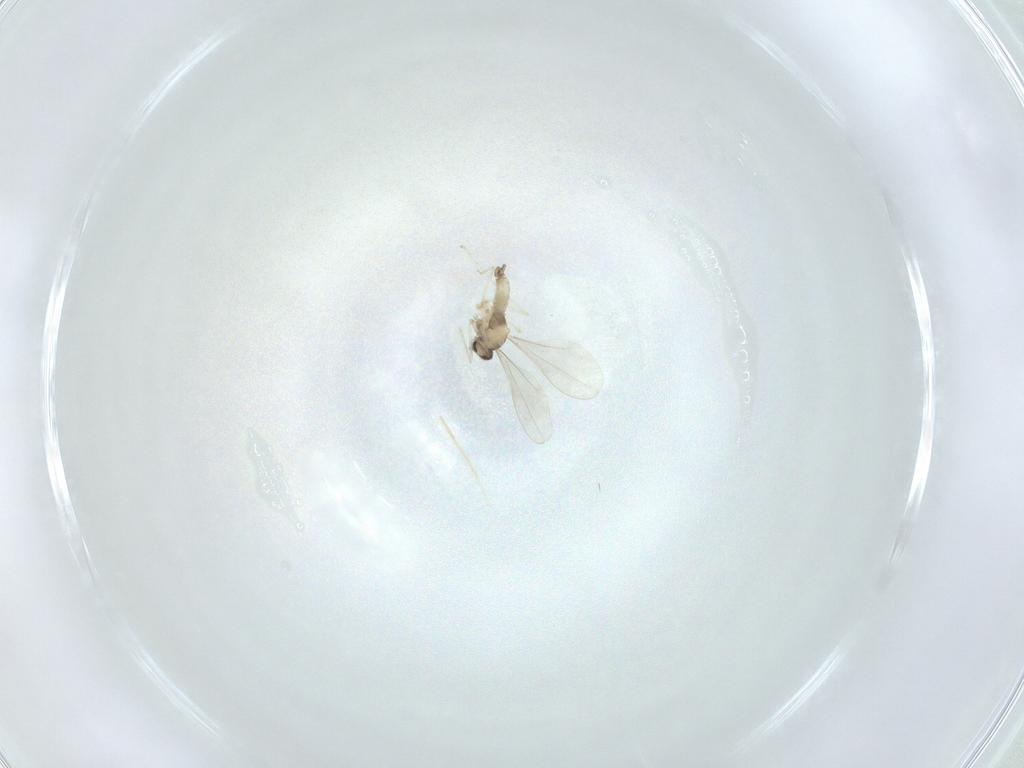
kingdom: Animalia
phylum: Arthropoda
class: Insecta
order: Diptera
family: Cecidomyiidae
